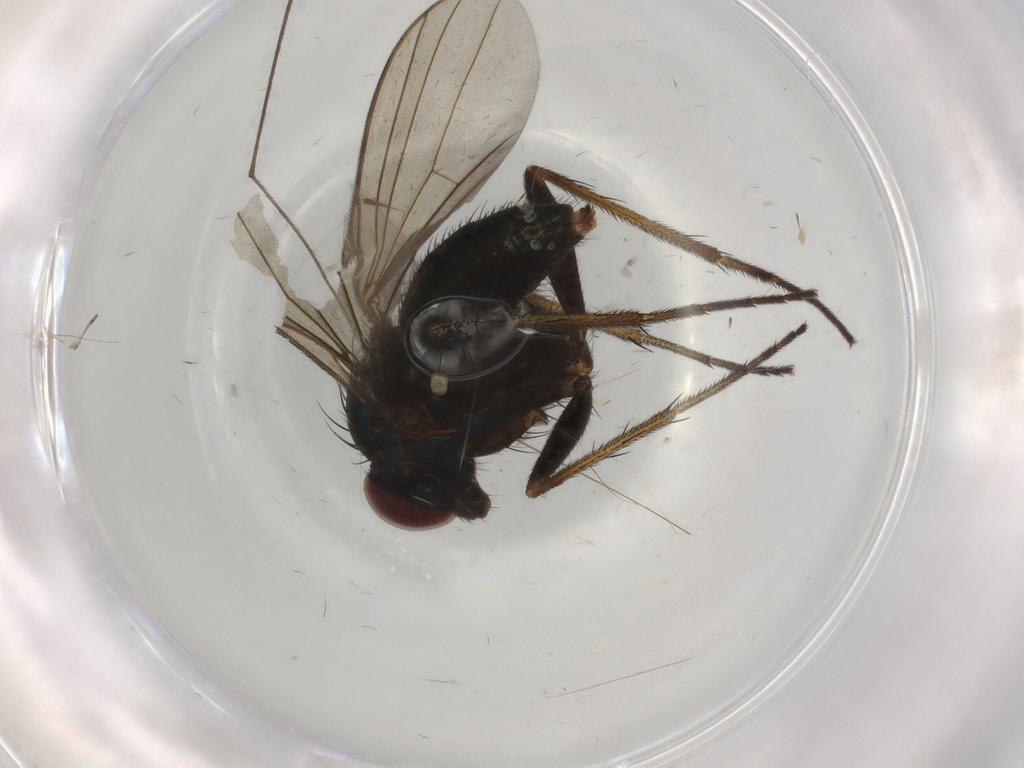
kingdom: Animalia
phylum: Arthropoda
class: Insecta
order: Diptera
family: Limoniidae
